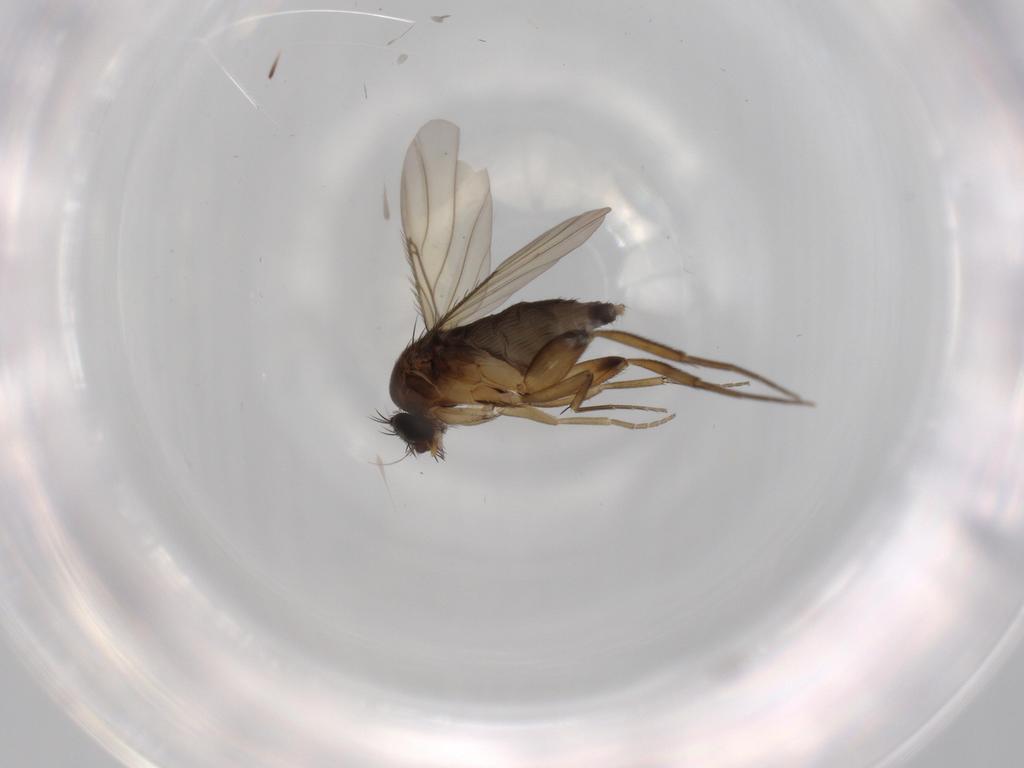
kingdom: Animalia
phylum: Arthropoda
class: Insecta
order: Diptera
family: Phoridae
